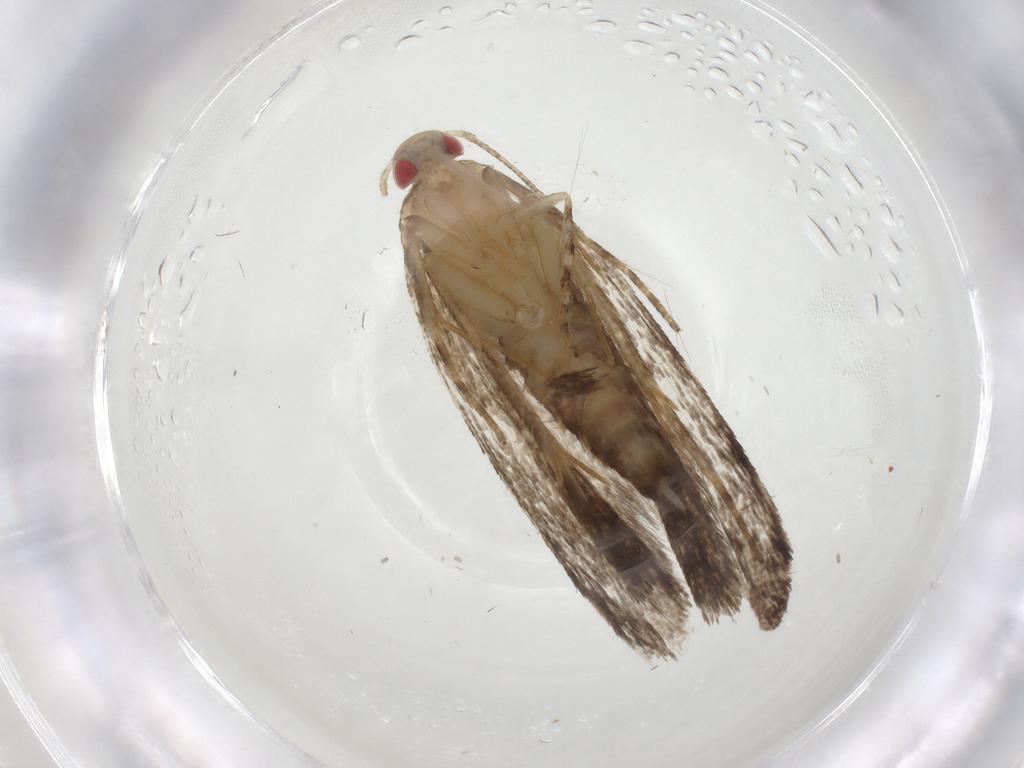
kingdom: Animalia
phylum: Arthropoda
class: Insecta
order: Lepidoptera
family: Gelechiidae
